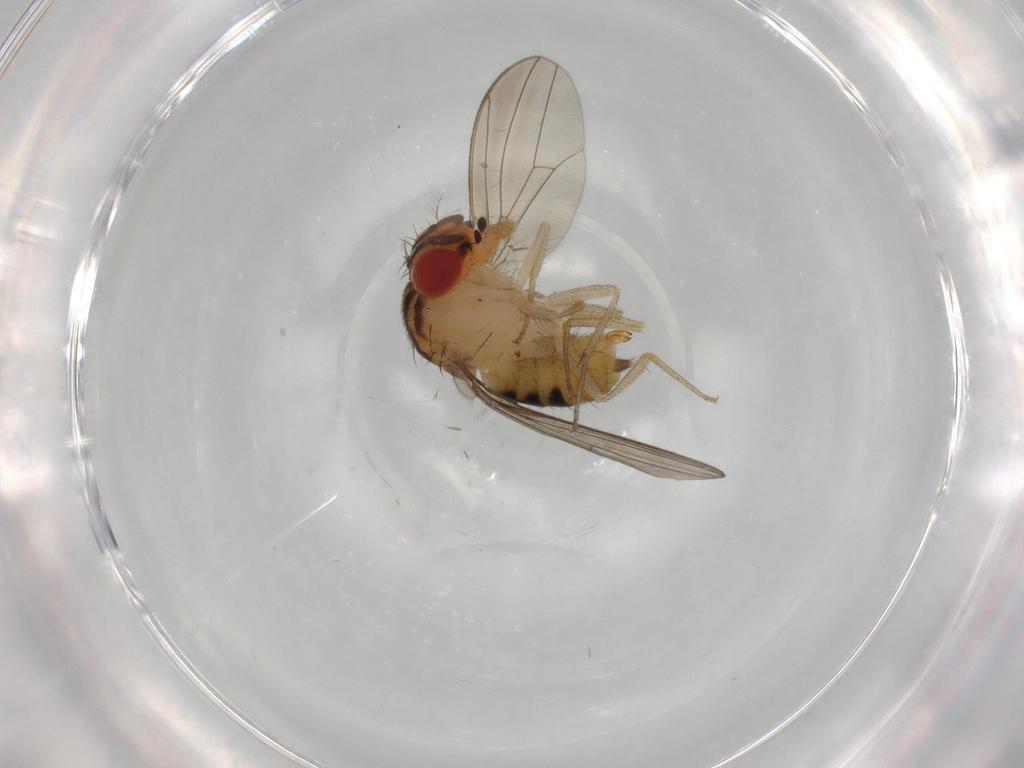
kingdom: Animalia
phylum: Arthropoda
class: Insecta
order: Diptera
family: Drosophilidae
